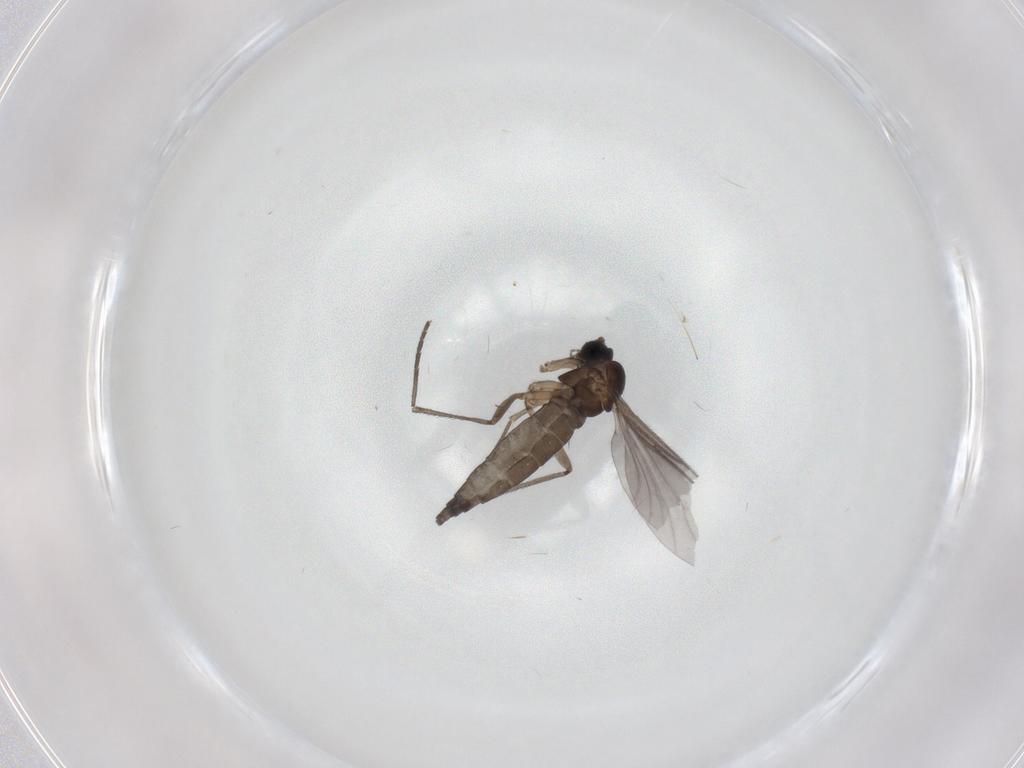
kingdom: Animalia
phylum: Arthropoda
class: Insecta
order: Diptera
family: Sciaridae
